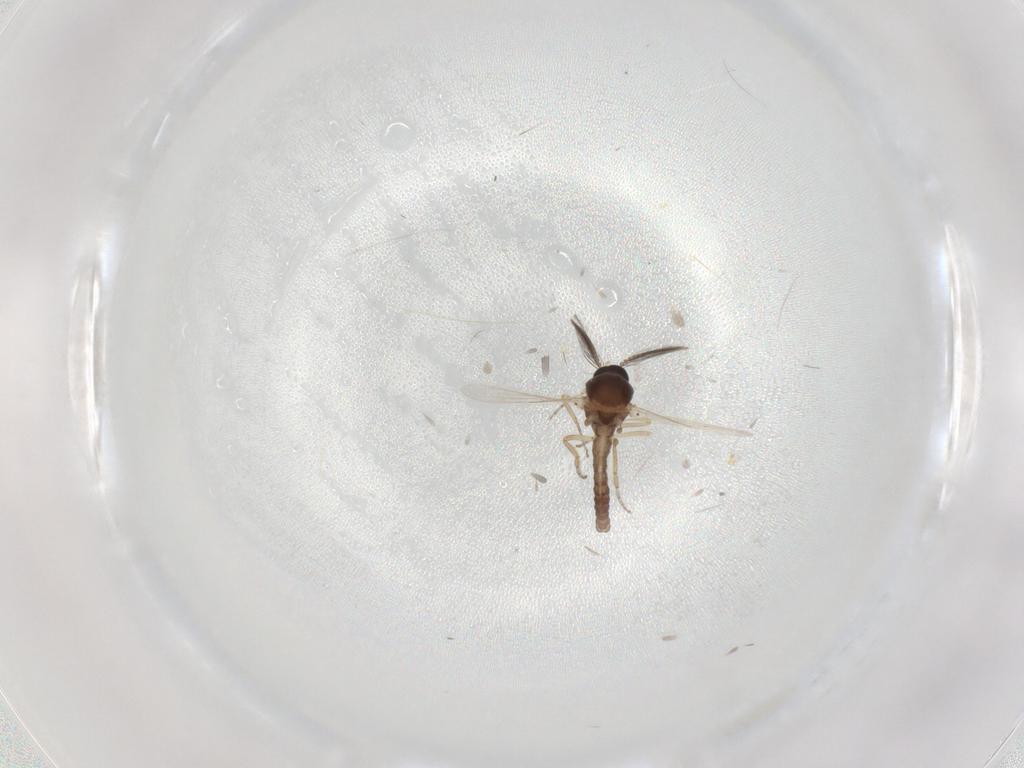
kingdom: Animalia
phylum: Arthropoda
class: Insecta
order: Diptera
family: Ceratopogonidae
